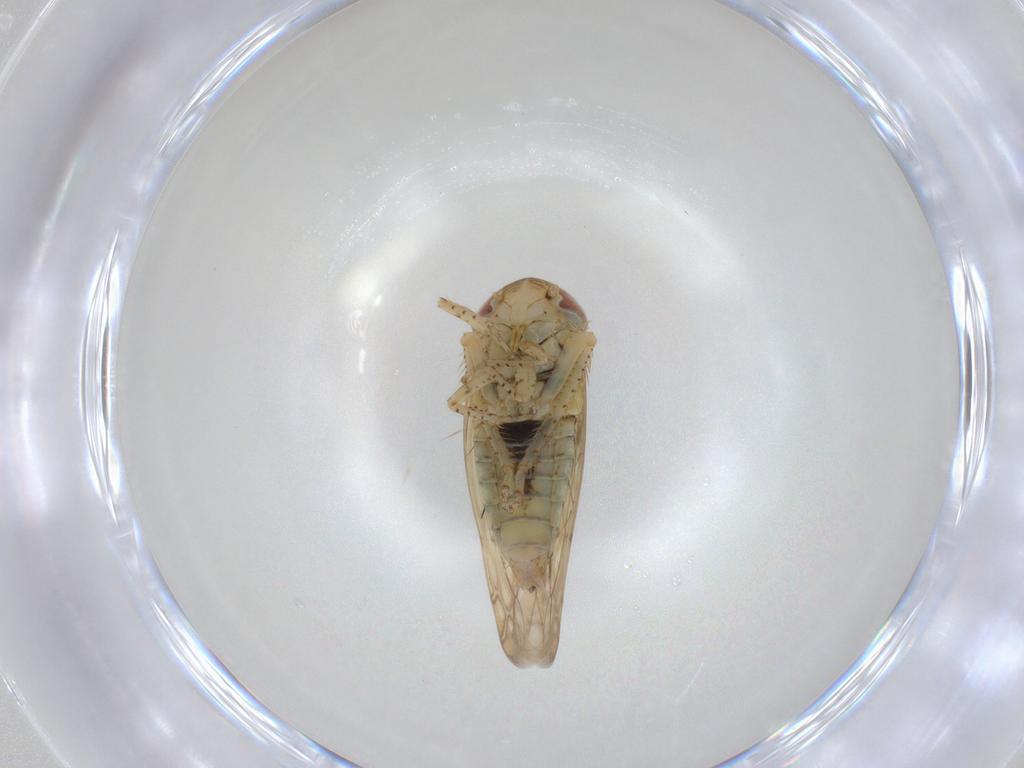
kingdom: Animalia
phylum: Arthropoda
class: Insecta
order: Hemiptera
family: Cicadellidae
